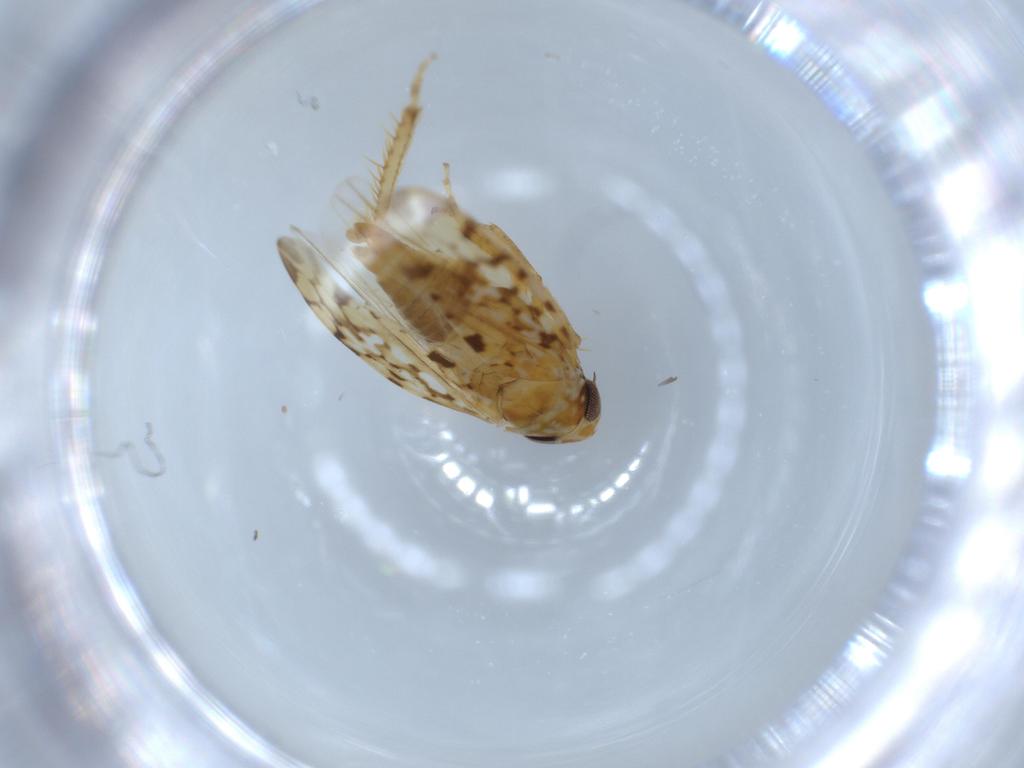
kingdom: Animalia
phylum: Arthropoda
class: Insecta
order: Hemiptera
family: Cicadellidae
